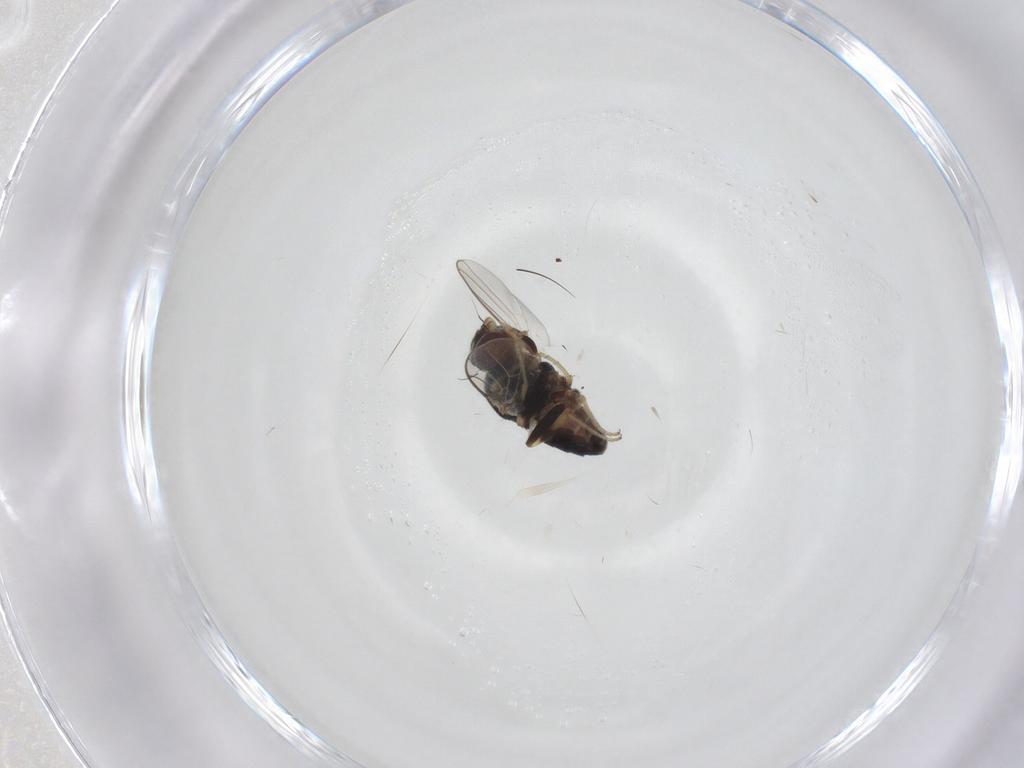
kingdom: Animalia
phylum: Arthropoda
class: Insecta
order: Diptera
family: Chloropidae
